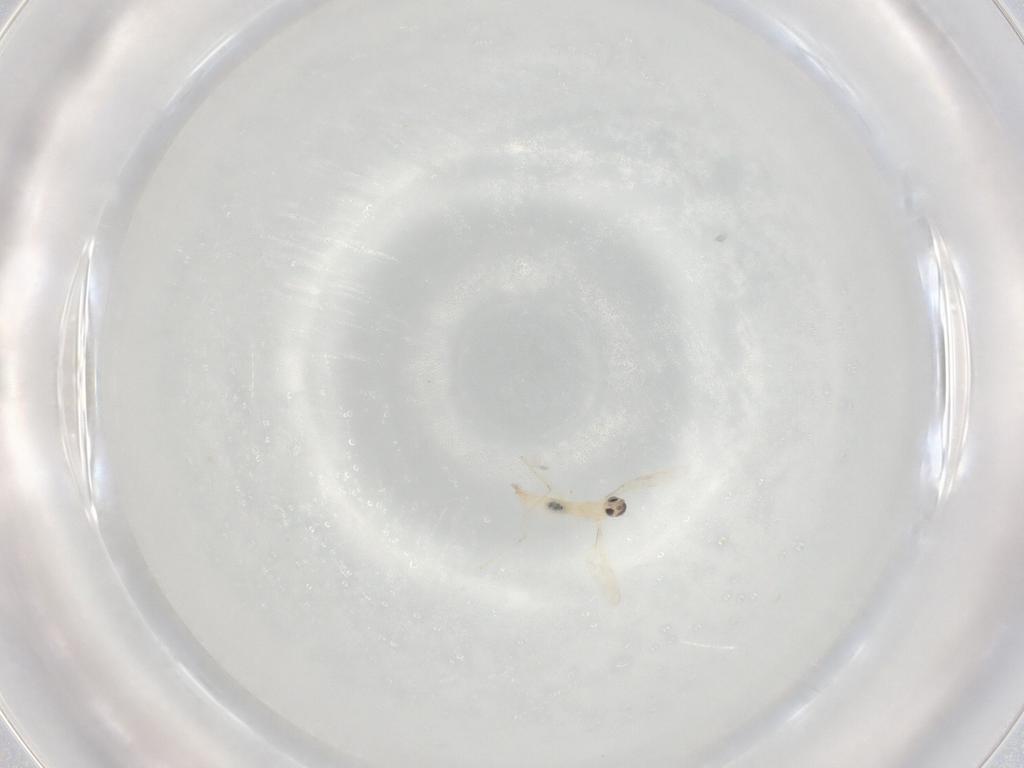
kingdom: Animalia
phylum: Arthropoda
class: Insecta
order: Diptera
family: Cecidomyiidae
